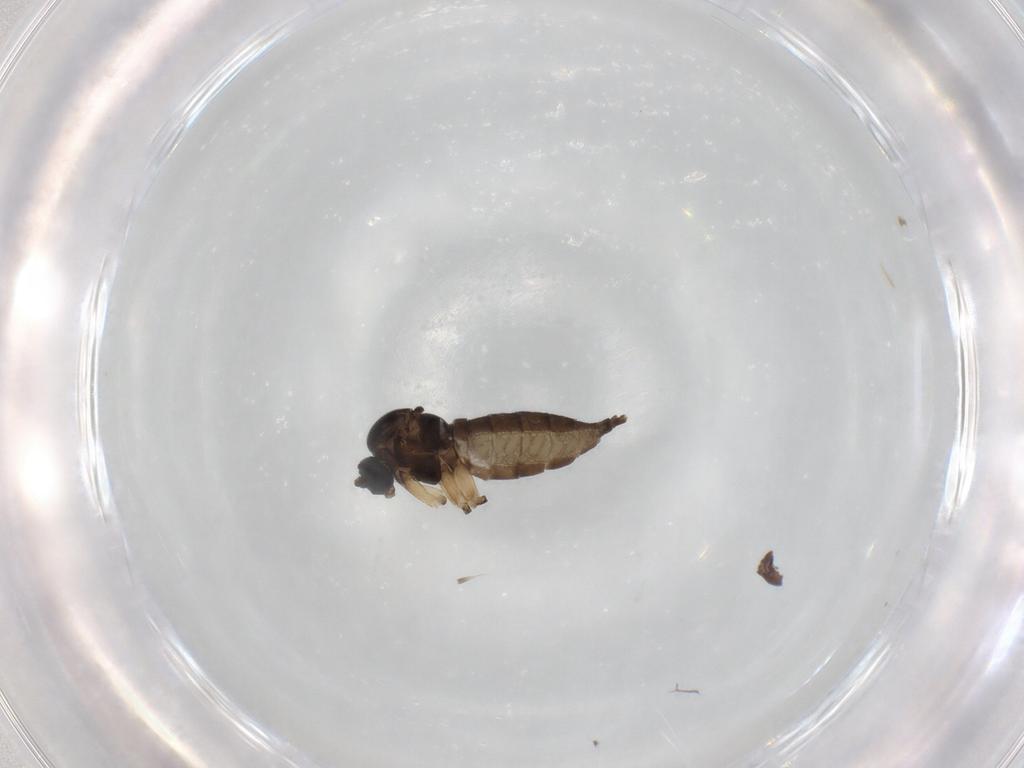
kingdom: Animalia
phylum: Arthropoda
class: Insecta
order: Diptera
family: Sciaridae
